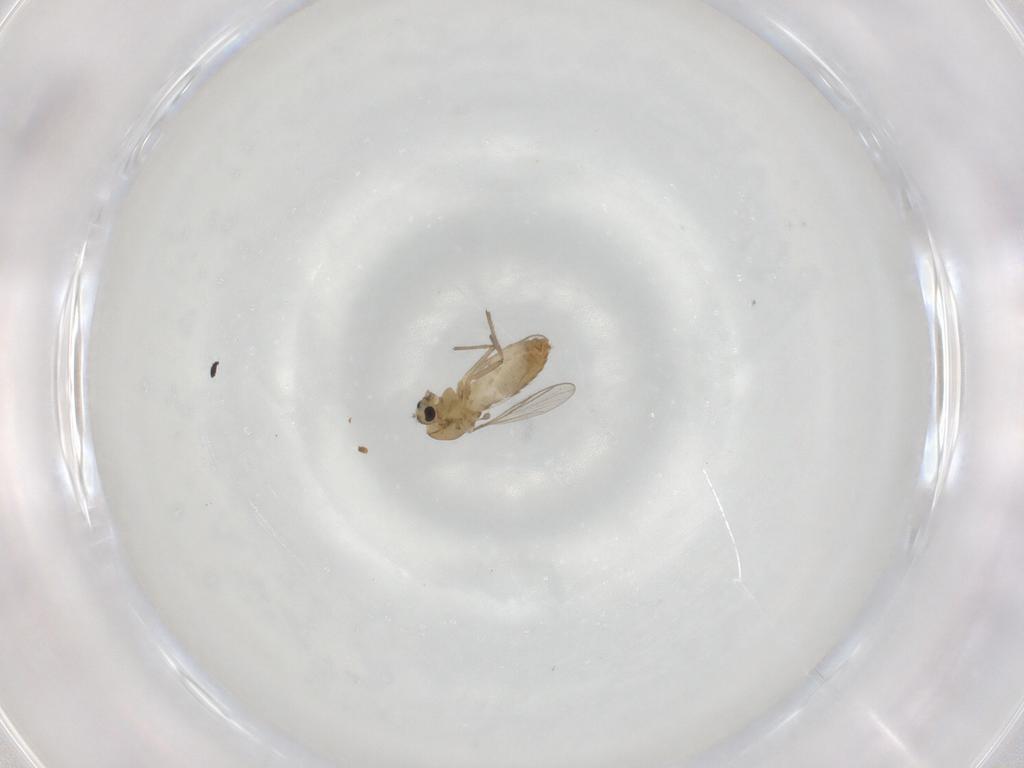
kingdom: Animalia
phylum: Arthropoda
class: Insecta
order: Diptera
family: Chironomidae
